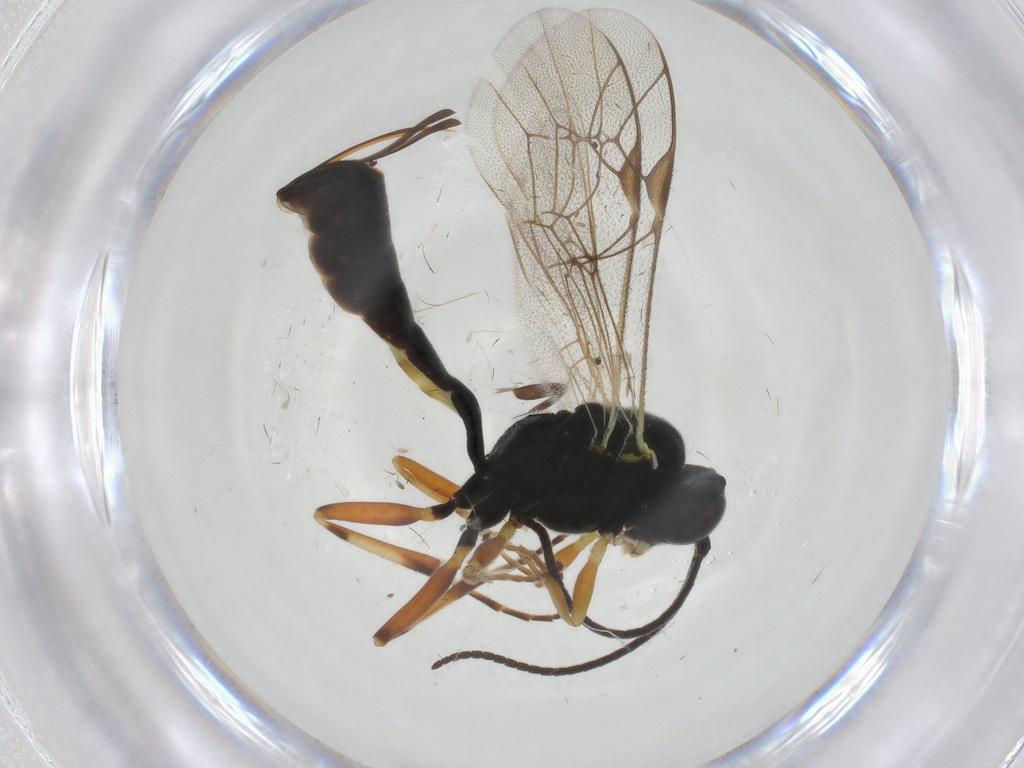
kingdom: Animalia
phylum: Arthropoda
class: Insecta
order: Hymenoptera
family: Ichneumonidae
